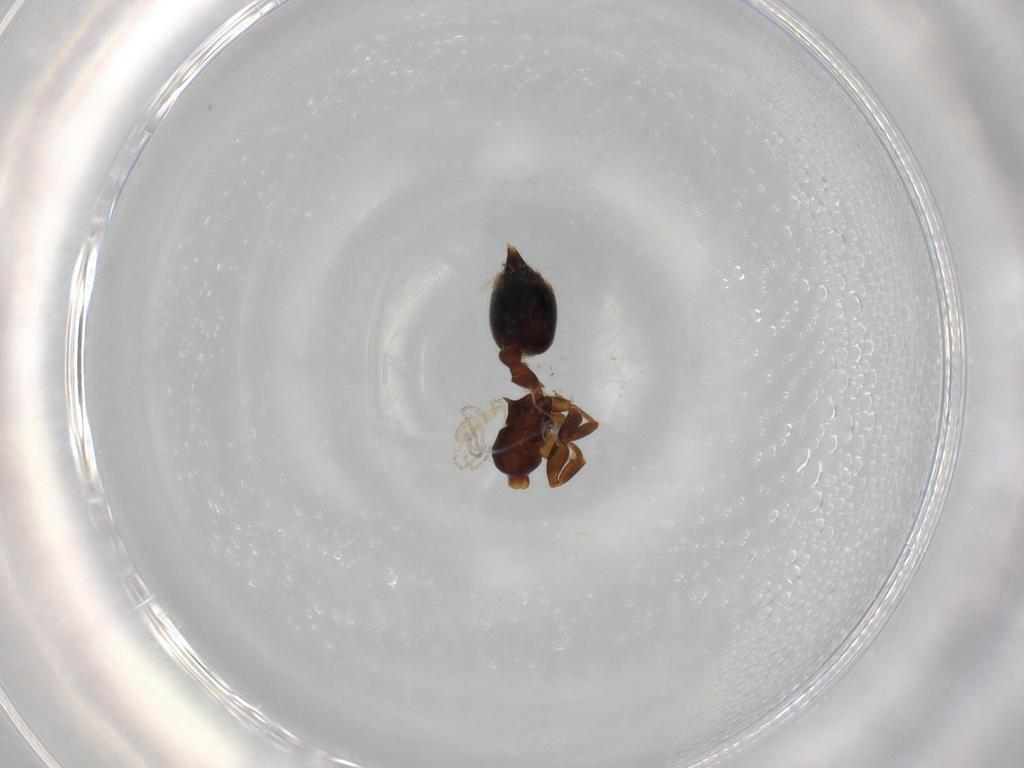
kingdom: Animalia
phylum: Arthropoda
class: Insecta
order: Hymenoptera
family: Formicidae
